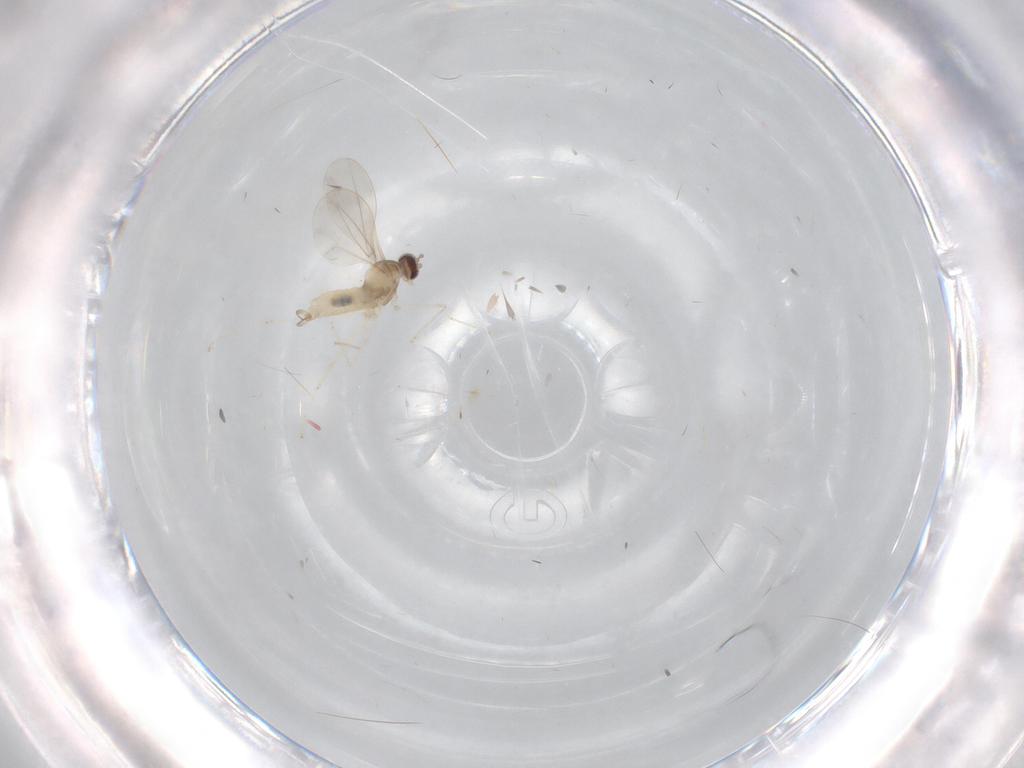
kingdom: Animalia
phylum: Arthropoda
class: Insecta
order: Diptera
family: Cecidomyiidae
